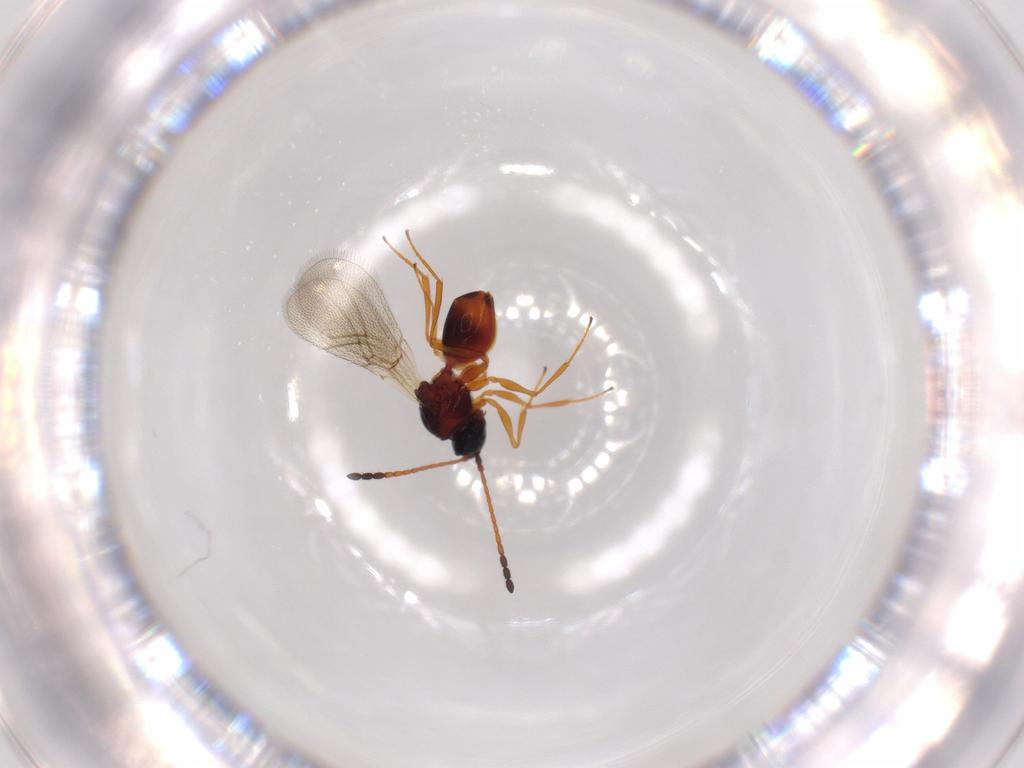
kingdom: Animalia
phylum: Arthropoda
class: Insecta
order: Hymenoptera
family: Figitidae
